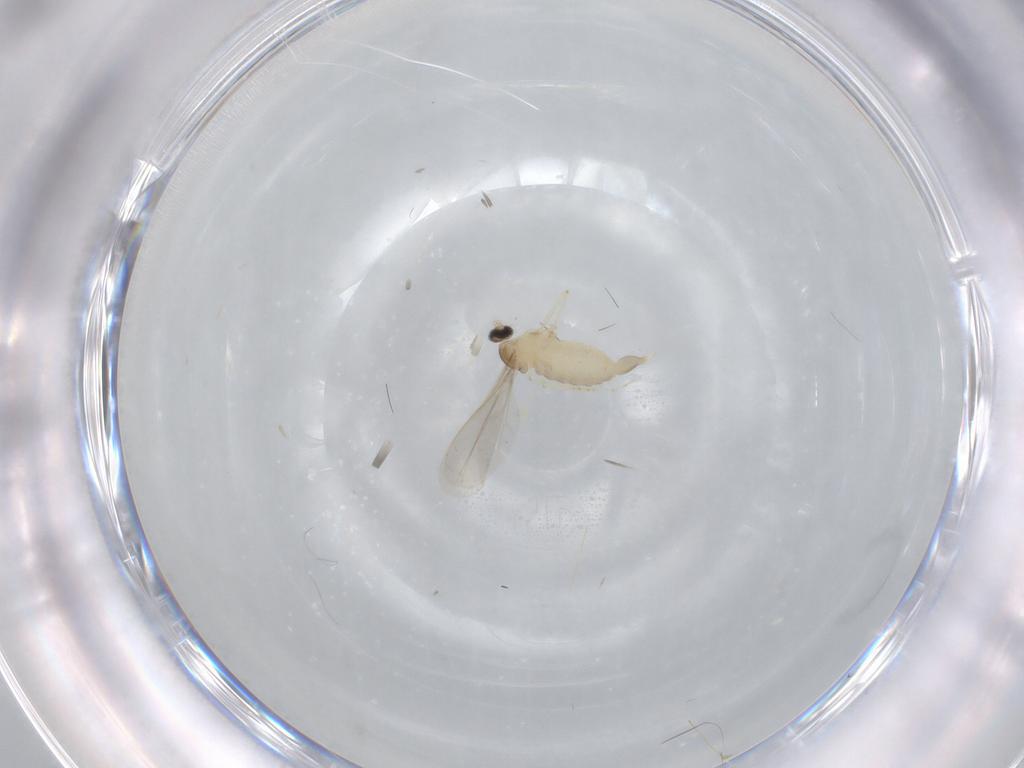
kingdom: Animalia
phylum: Arthropoda
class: Insecta
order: Diptera
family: Cecidomyiidae
